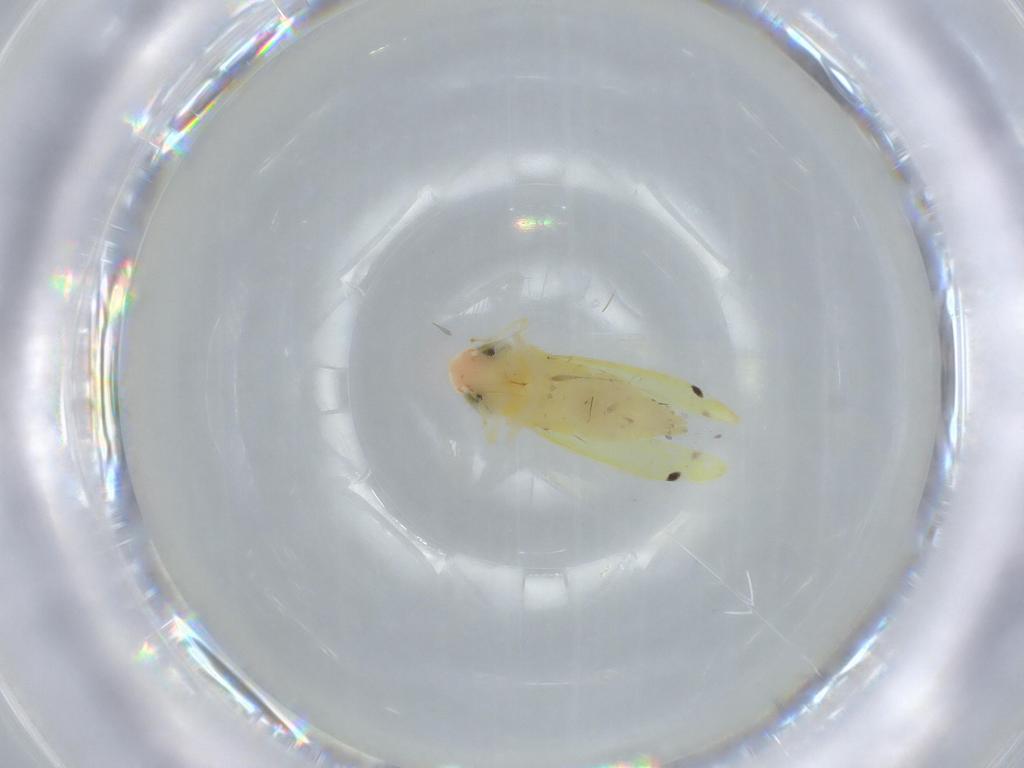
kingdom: Animalia
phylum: Arthropoda
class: Insecta
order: Hemiptera
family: Cicadellidae
